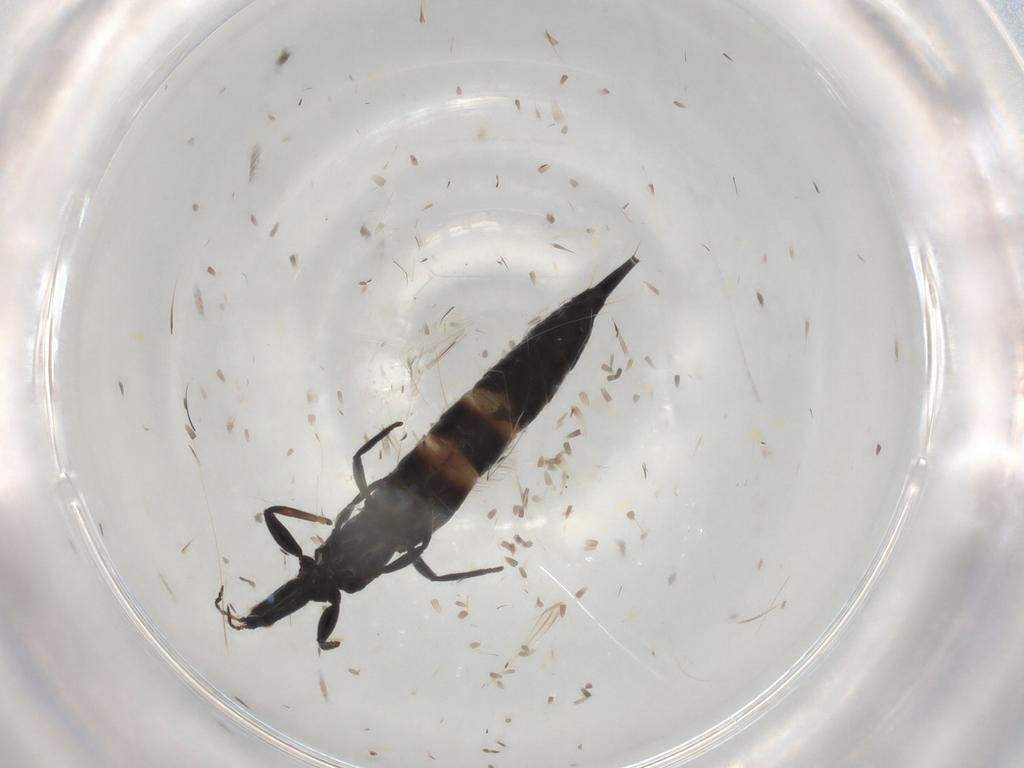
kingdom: Animalia
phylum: Arthropoda
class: Insecta
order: Thysanoptera
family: Phlaeothripidae
